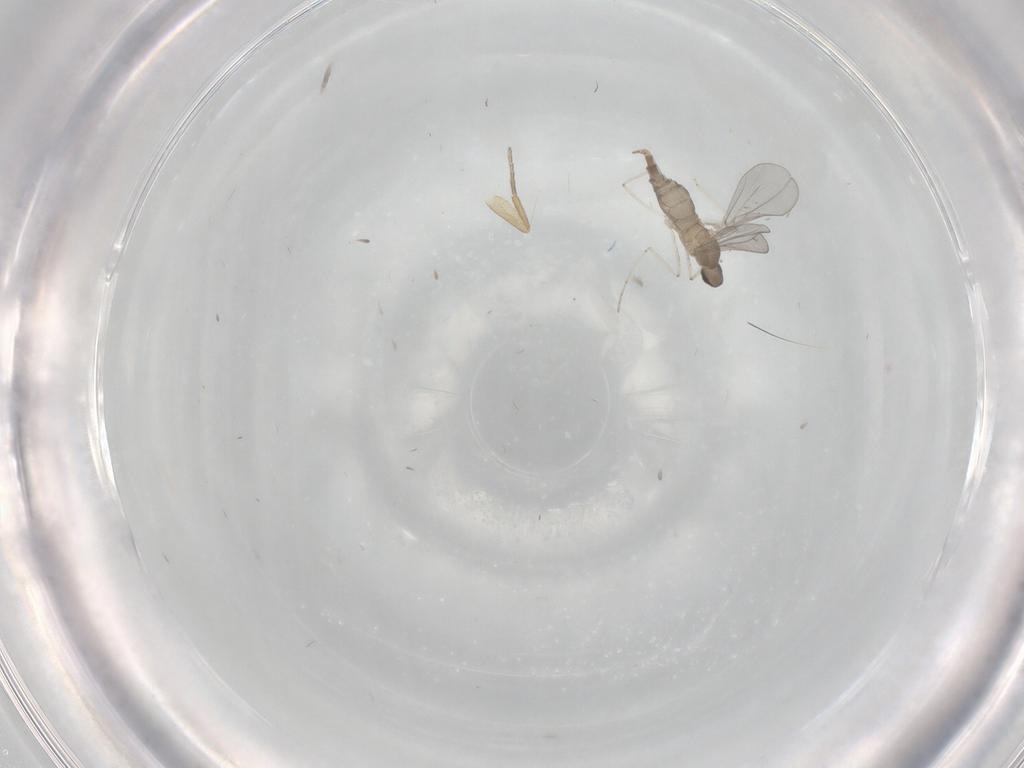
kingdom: Animalia
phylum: Arthropoda
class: Insecta
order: Diptera
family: Cecidomyiidae
